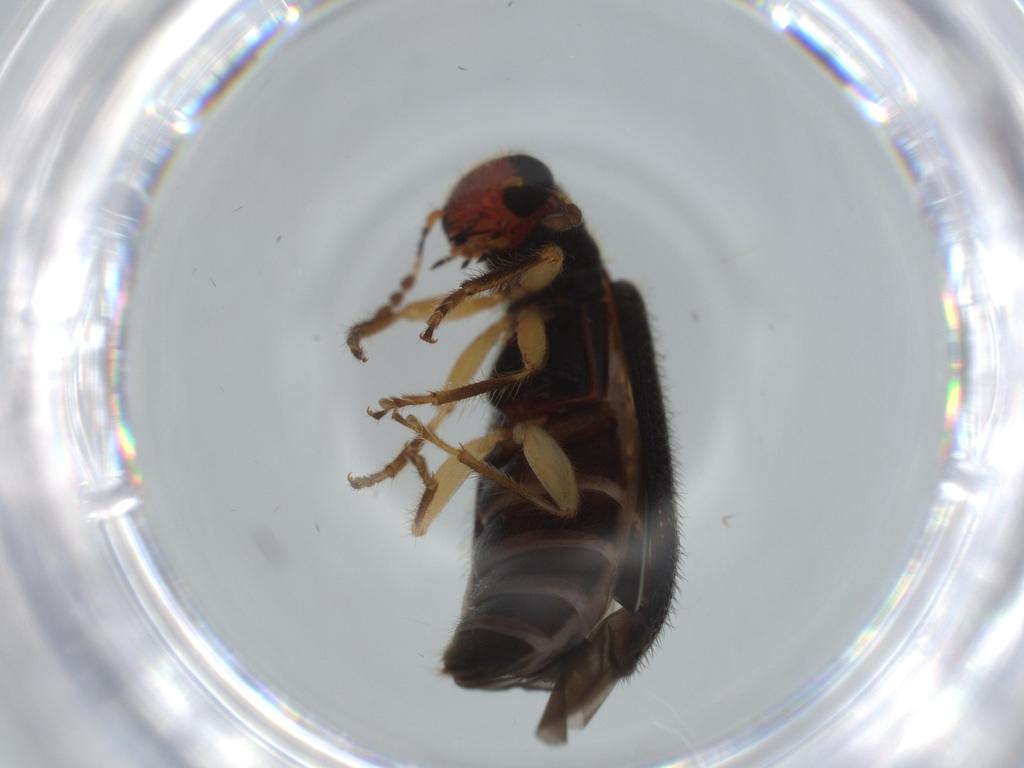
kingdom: Animalia
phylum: Arthropoda
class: Insecta
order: Coleoptera
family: Cleridae
